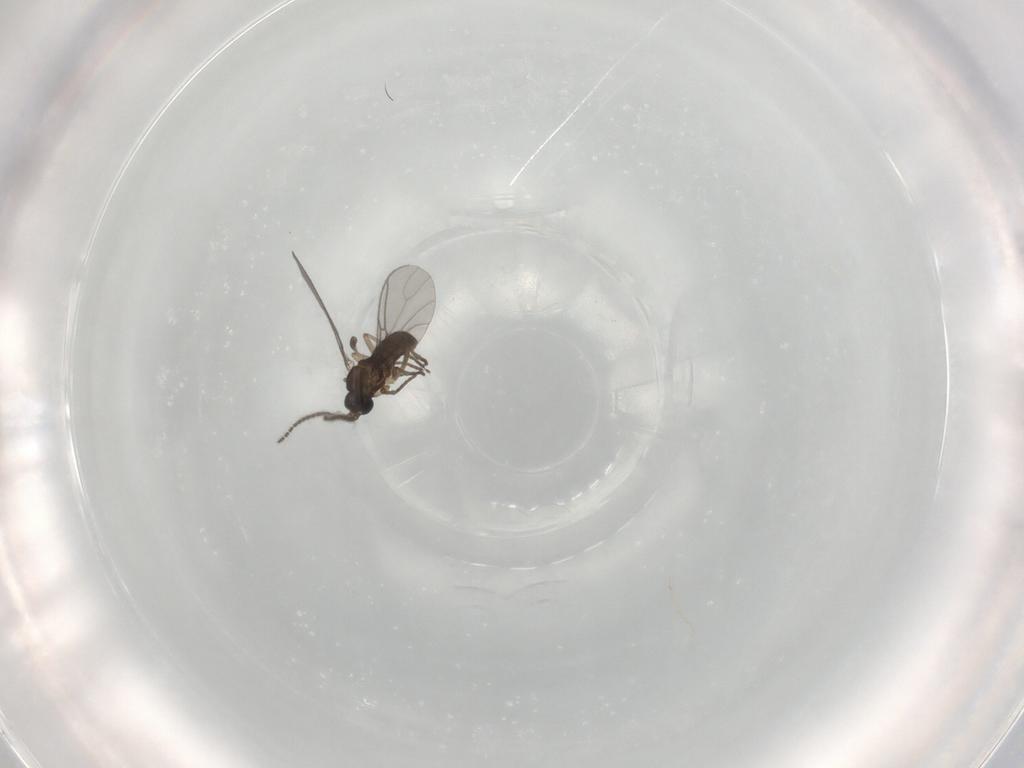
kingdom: Animalia
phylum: Arthropoda
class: Insecta
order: Diptera
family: Sciaridae
